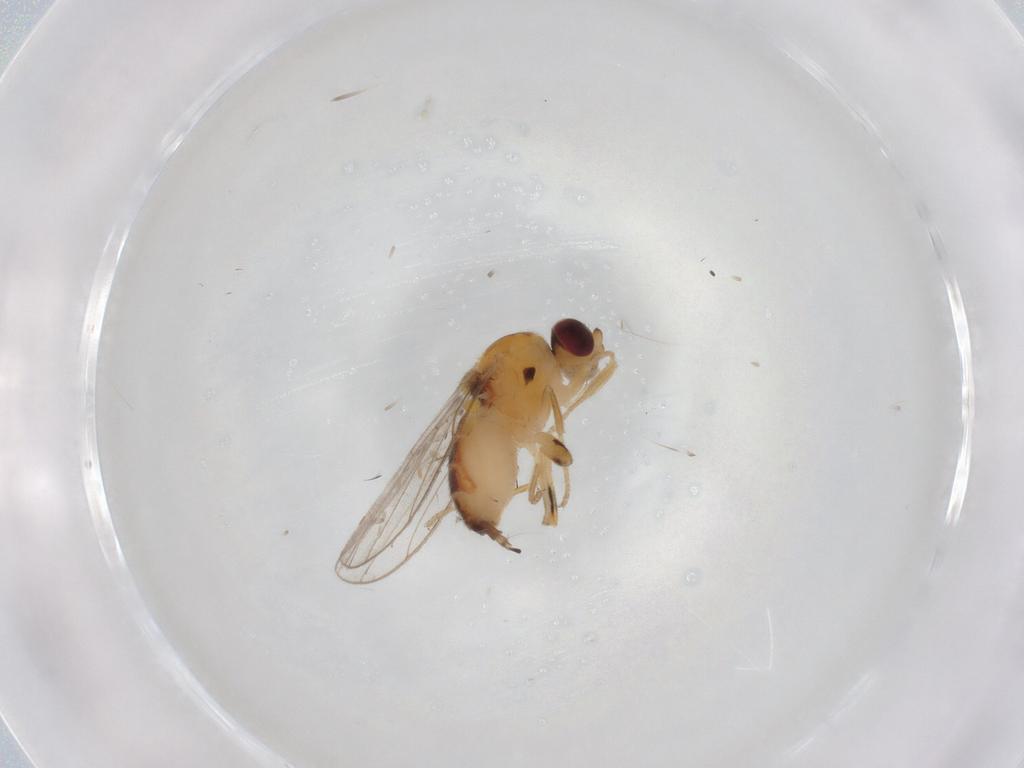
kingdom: Animalia
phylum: Arthropoda
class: Insecta
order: Diptera
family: Chloropidae
